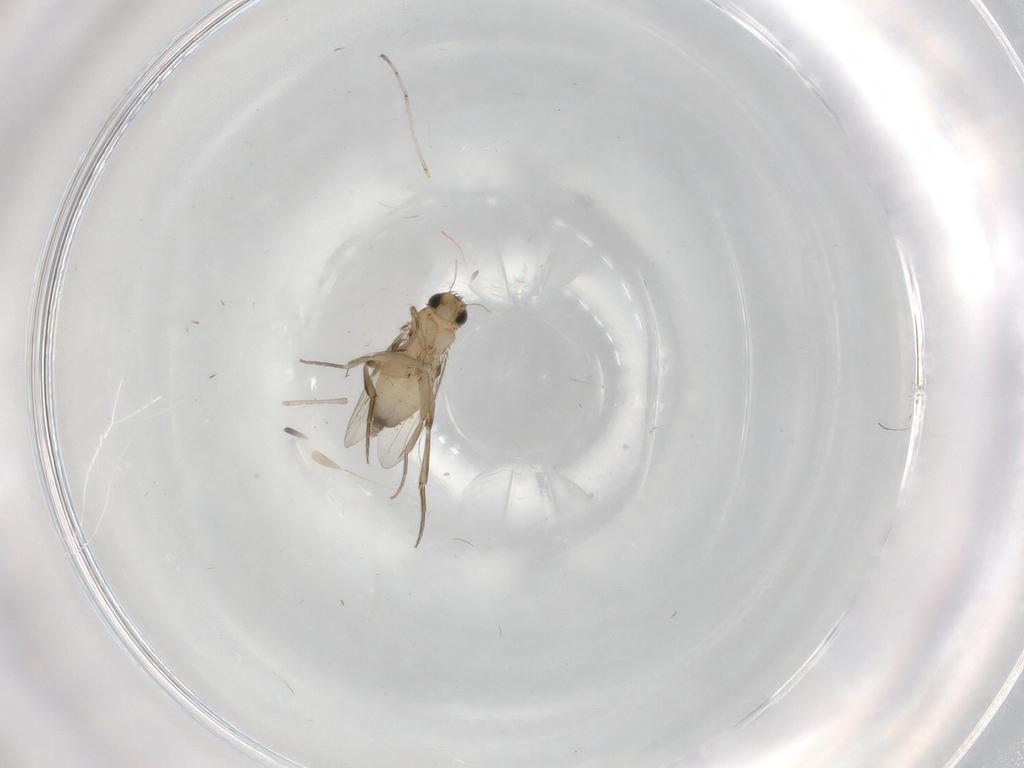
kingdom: Animalia
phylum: Arthropoda
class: Insecta
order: Diptera
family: Phoridae
